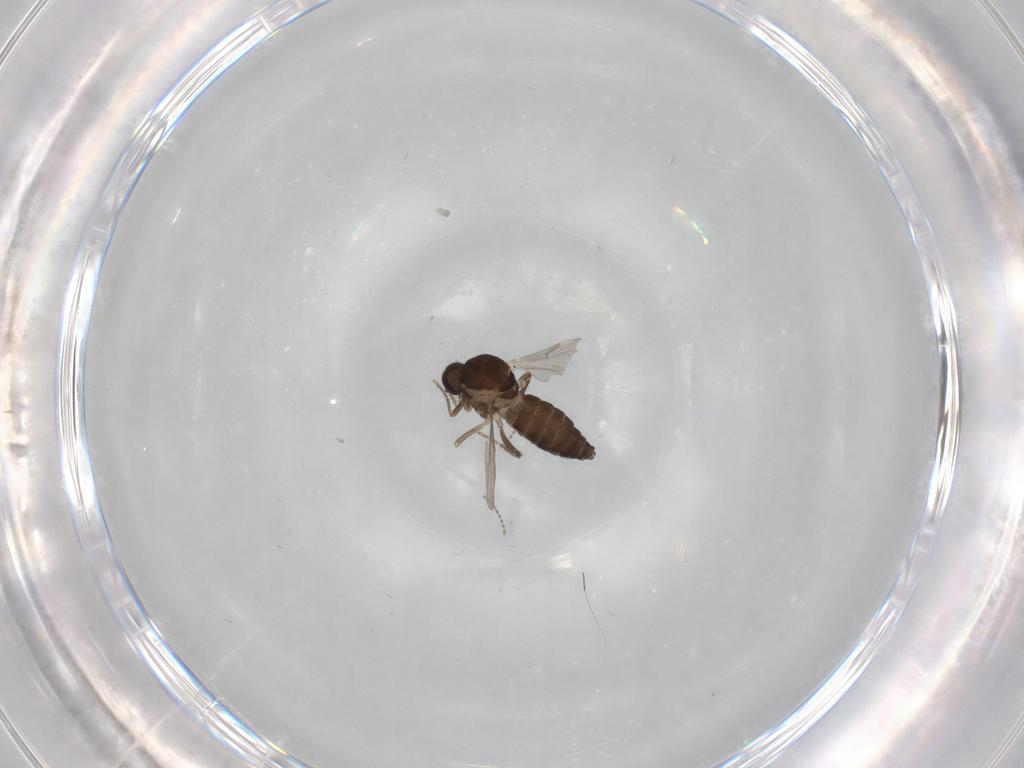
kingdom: Animalia
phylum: Arthropoda
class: Insecta
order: Diptera
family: Ceratopogonidae
